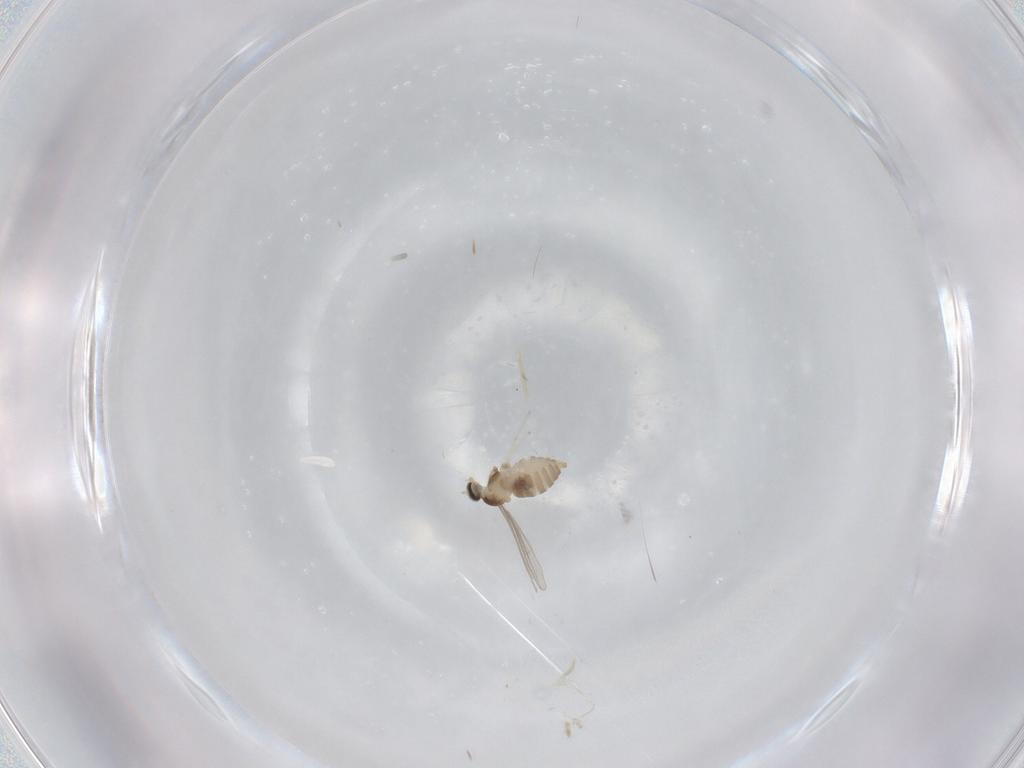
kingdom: Animalia
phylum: Arthropoda
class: Insecta
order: Diptera
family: Cecidomyiidae
